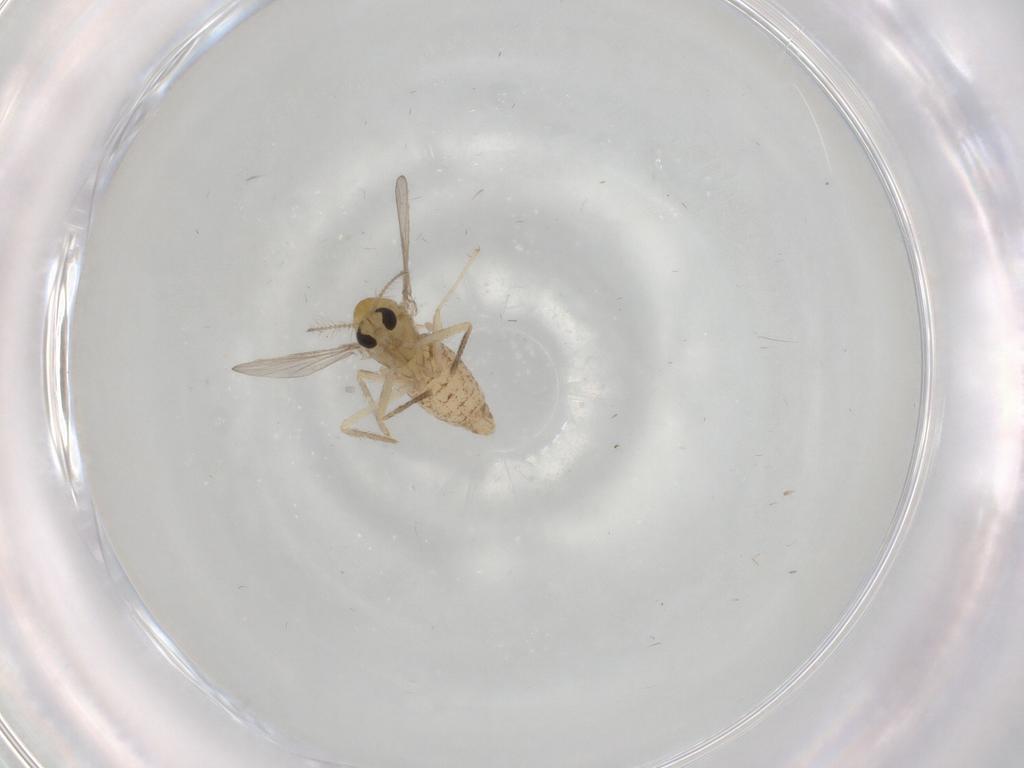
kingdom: Animalia
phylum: Arthropoda
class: Insecta
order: Diptera
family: Chironomidae
